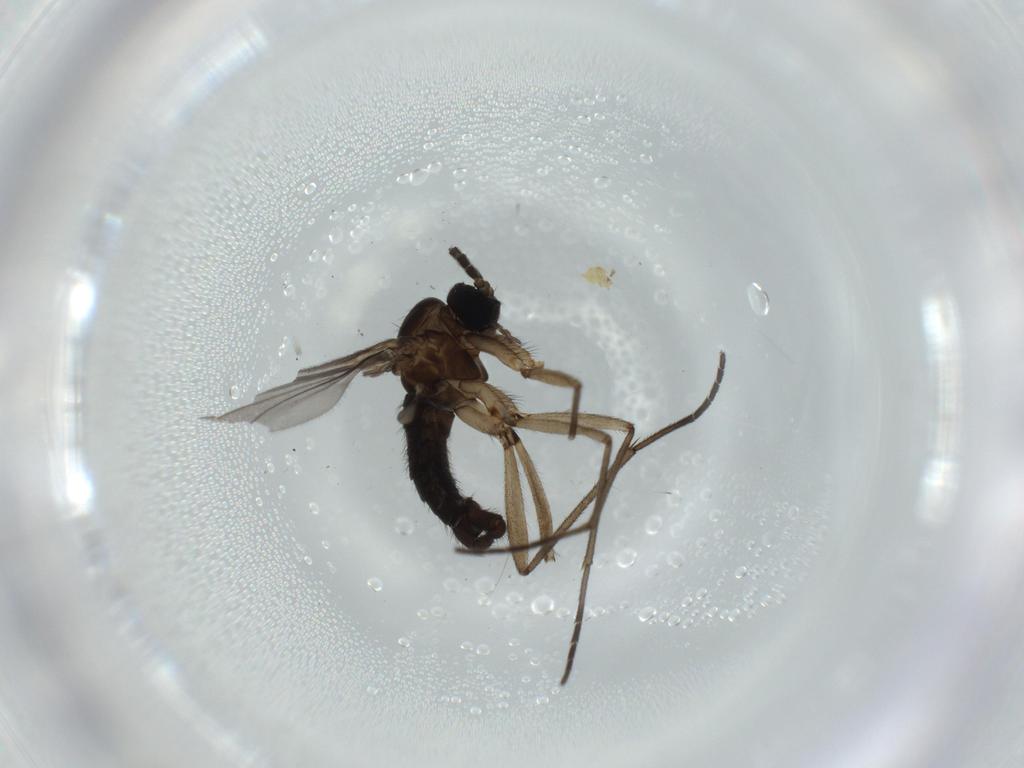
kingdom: Animalia
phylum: Arthropoda
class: Insecta
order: Diptera
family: Sciaridae
